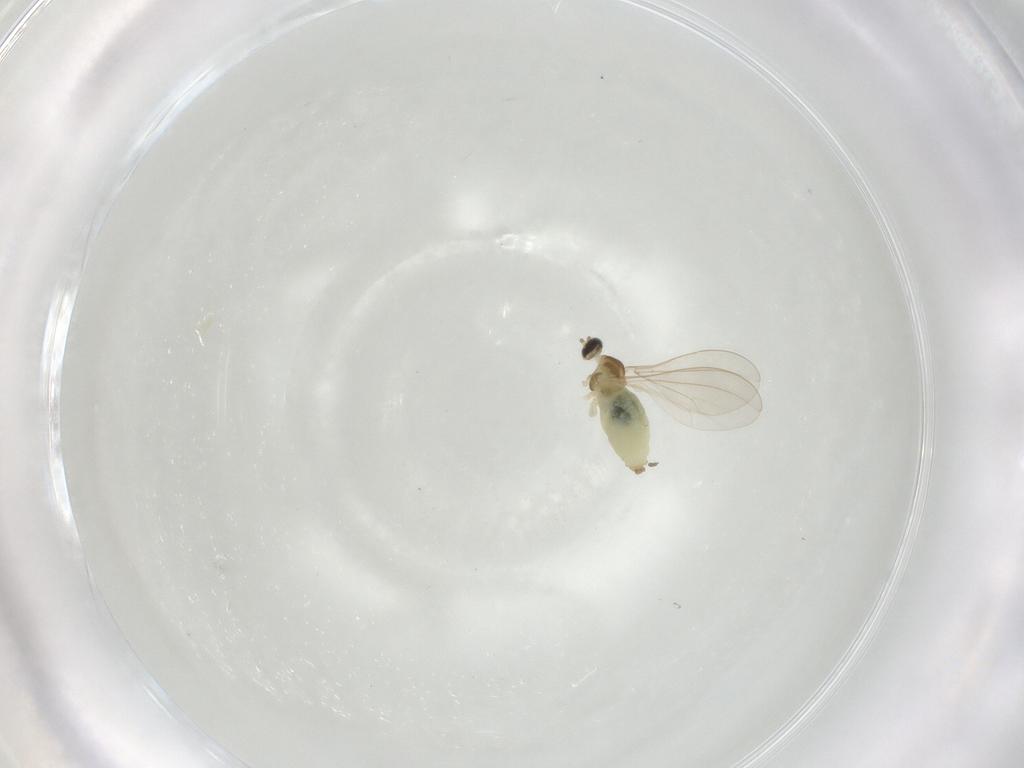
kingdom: Animalia
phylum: Arthropoda
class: Insecta
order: Diptera
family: Cecidomyiidae
